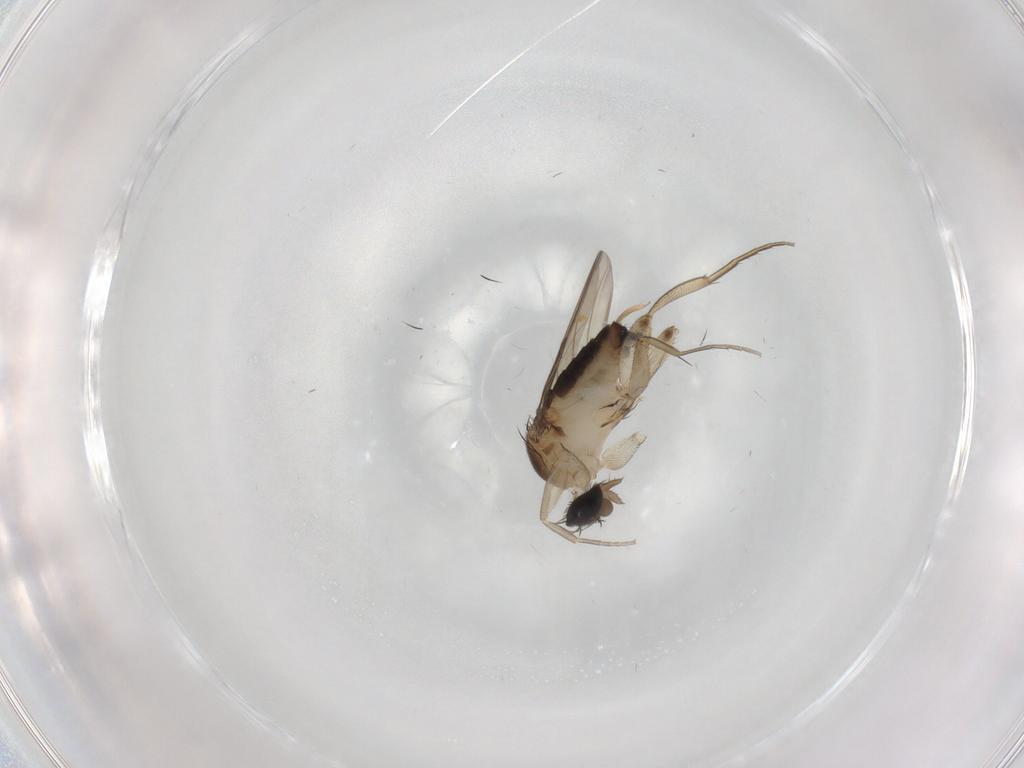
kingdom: Animalia
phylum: Arthropoda
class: Insecta
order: Diptera
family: Phoridae
